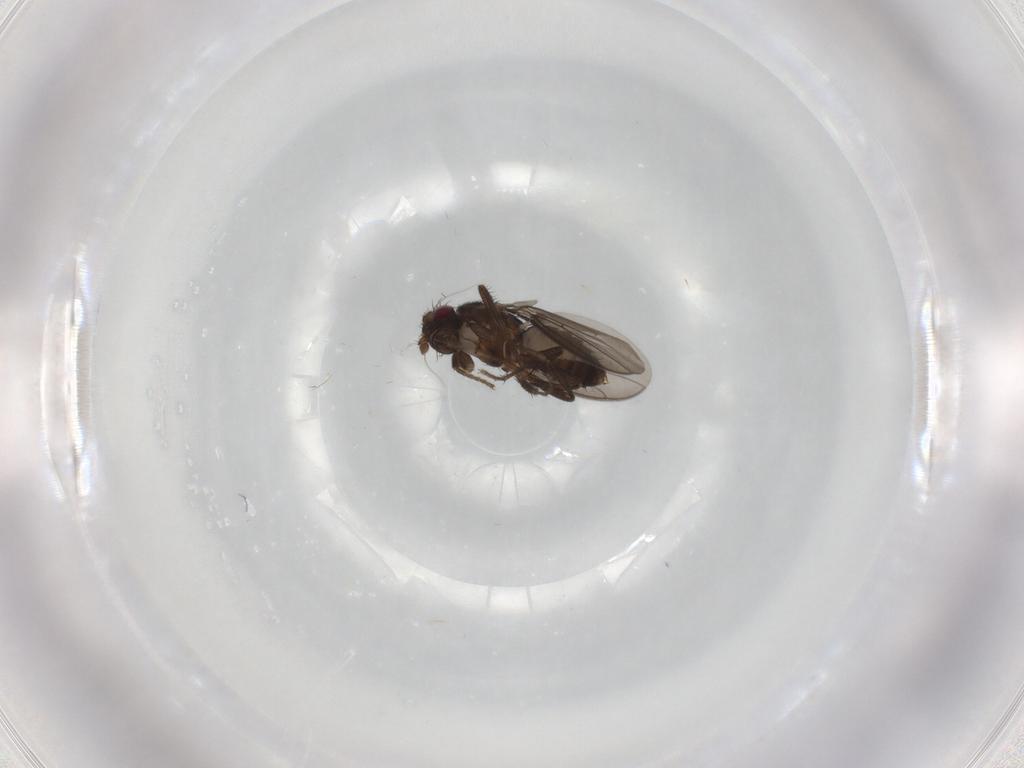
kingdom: Animalia
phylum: Arthropoda
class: Insecta
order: Diptera
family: Sphaeroceridae
